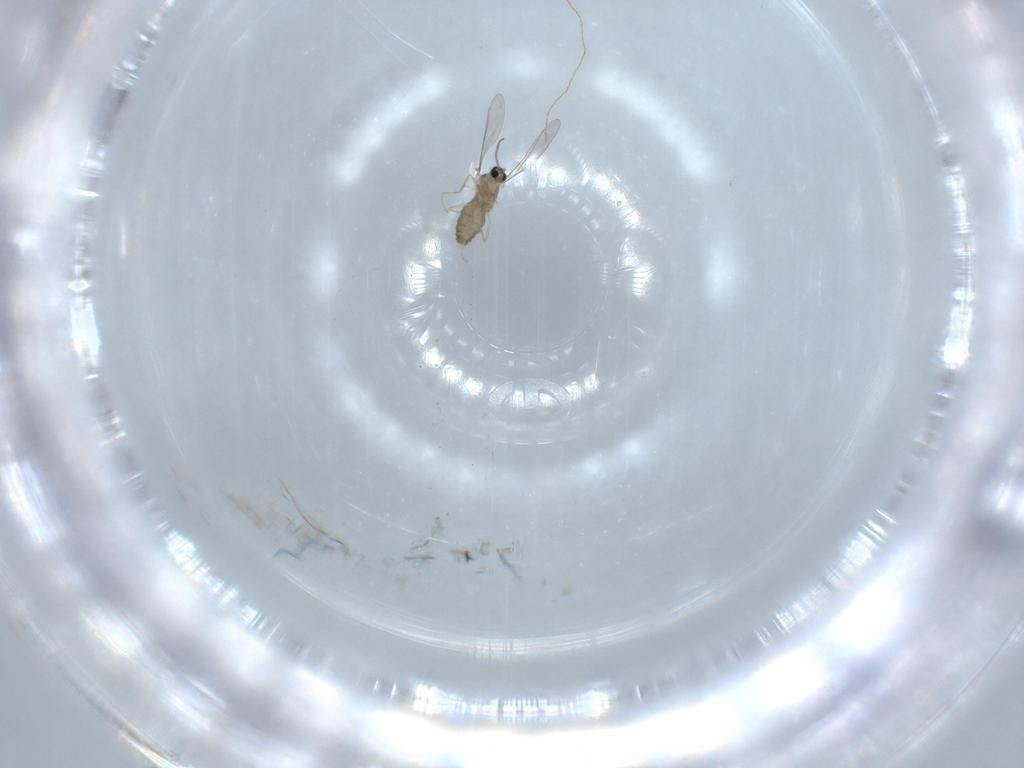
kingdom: Animalia
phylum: Arthropoda
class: Insecta
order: Diptera
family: Cecidomyiidae
